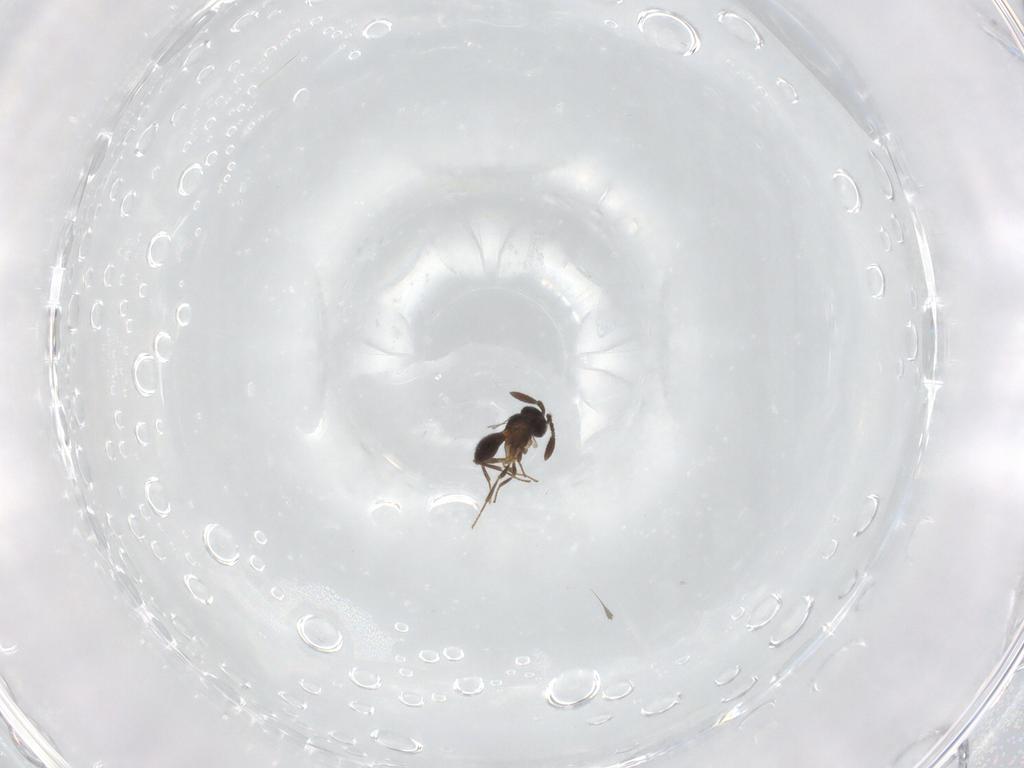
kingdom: Animalia
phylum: Arthropoda
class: Insecta
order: Hymenoptera
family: Scelionidae
